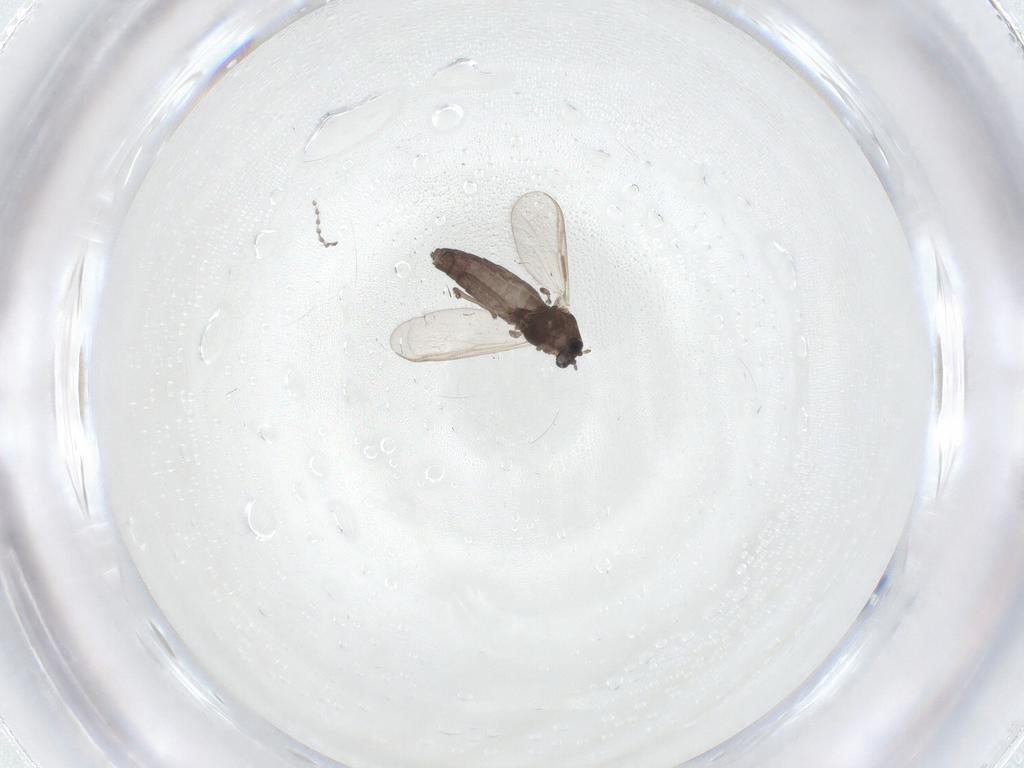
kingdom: Animalia
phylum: Arthropoda
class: Insecta
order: Diptera
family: Chironomidae
